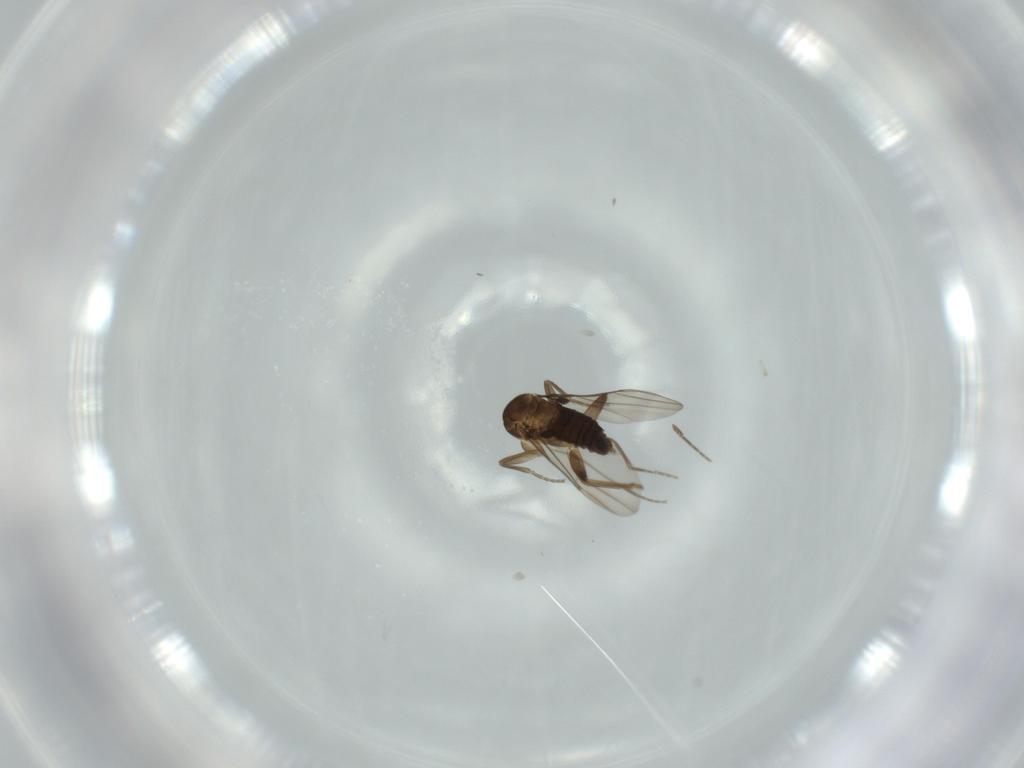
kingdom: Animalia
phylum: Arthropoda
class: Insecta
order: Diptera
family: Phoridae
